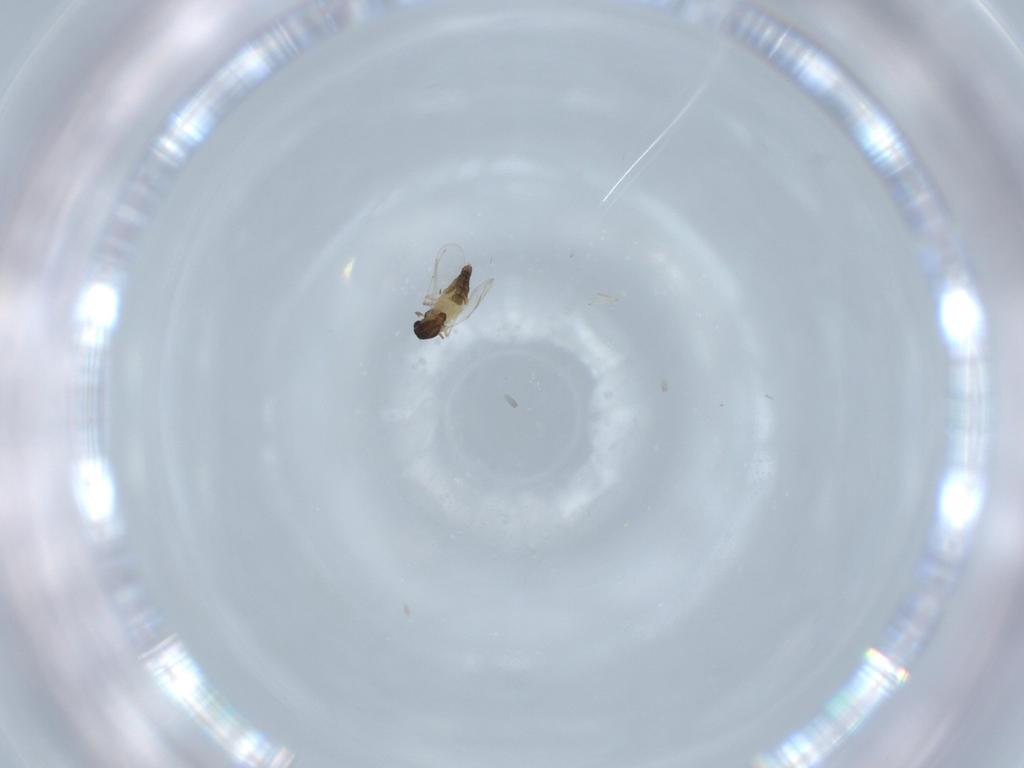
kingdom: Animalia
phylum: Arthropoda
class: Insecta
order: Diptera
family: Chironomidae
